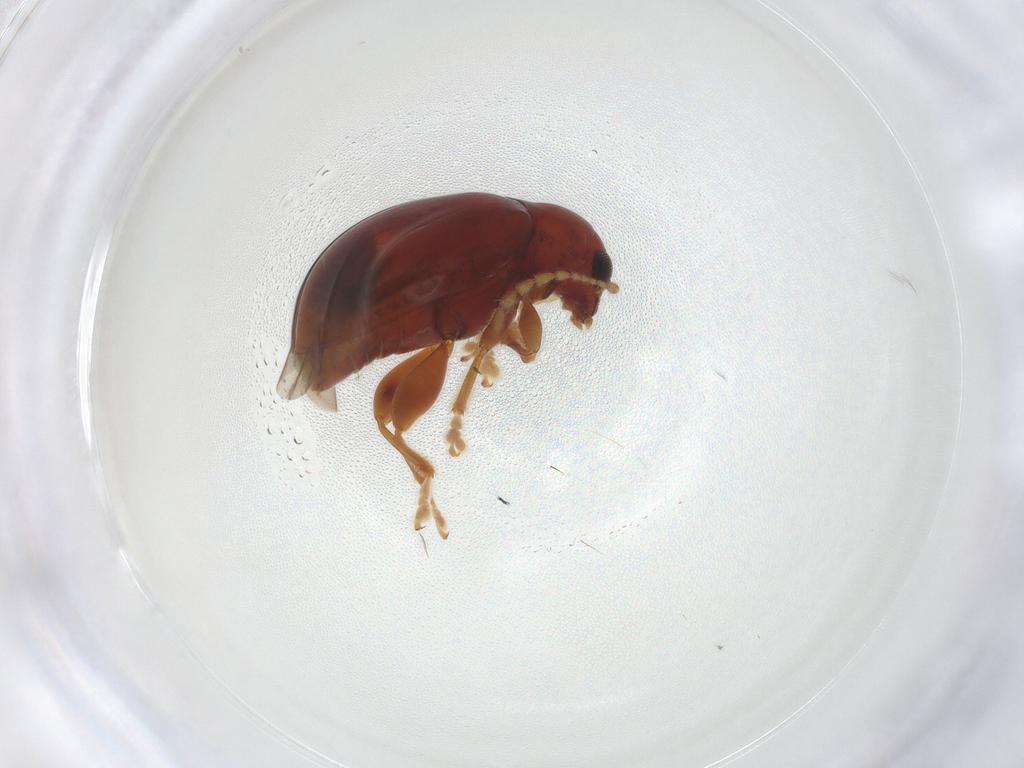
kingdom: Animalia
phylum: Arthropoda
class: Insecta
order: Coleoptera
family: Chrysomelidae
